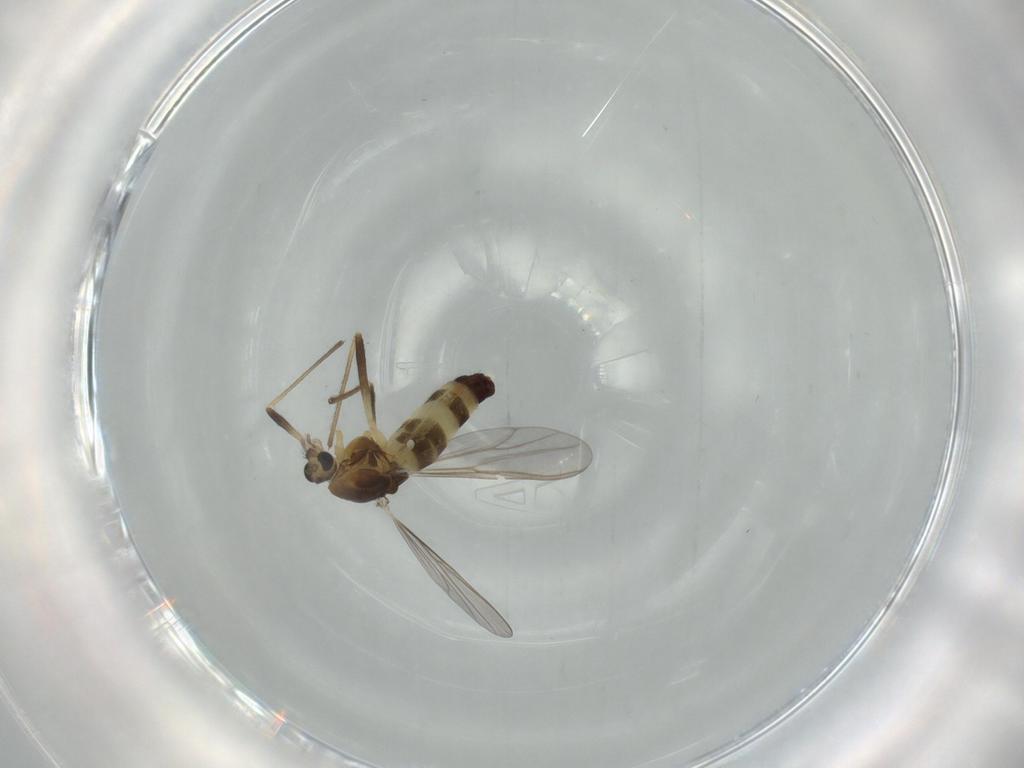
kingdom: Animalia
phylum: Arthropoda
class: Insecta
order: Diptera
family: Chironomidae
